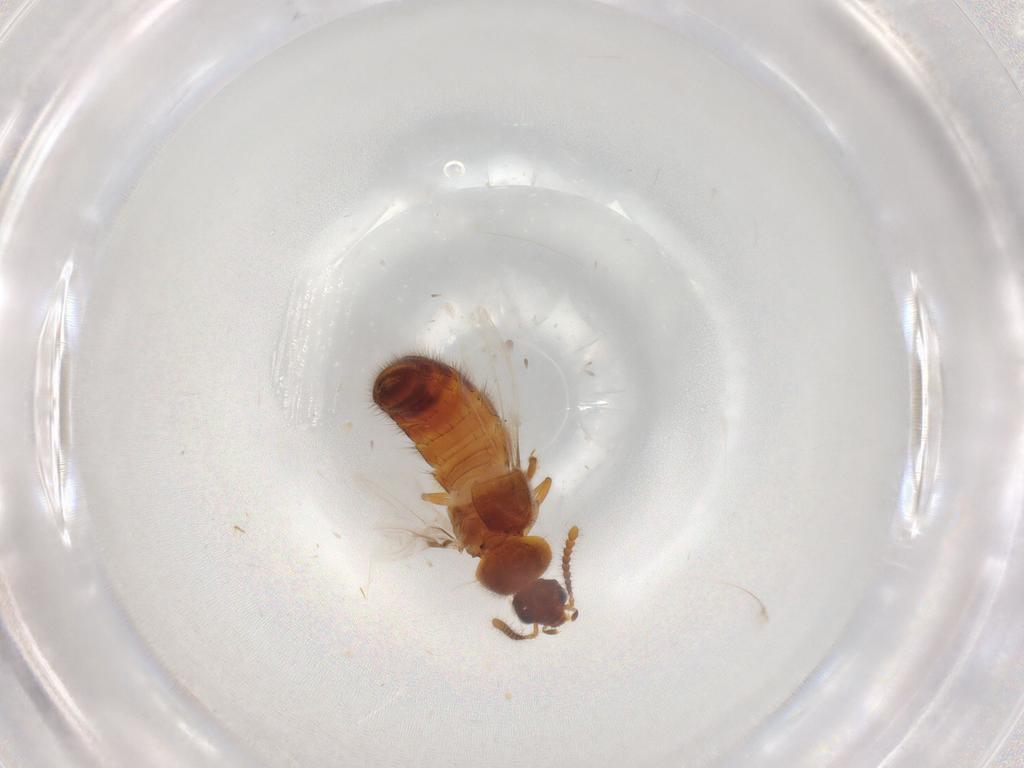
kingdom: Animalia
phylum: Arthropoda
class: Insecta
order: Coleoptera
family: Staphylinidae
